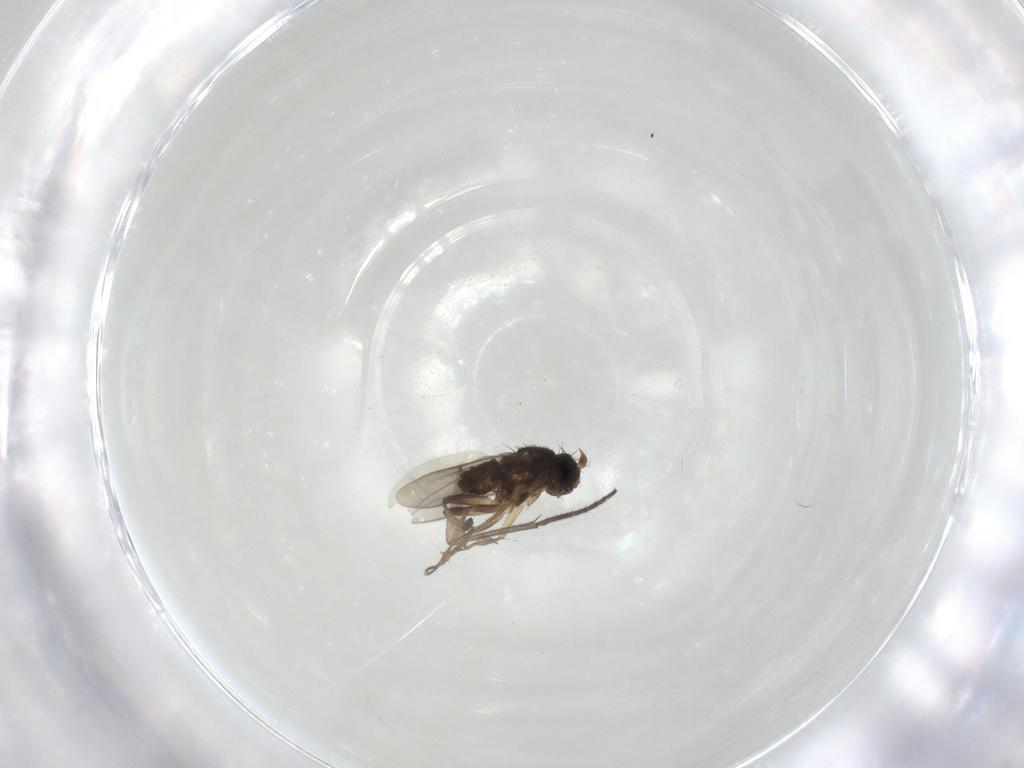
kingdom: Animalia
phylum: Arthropoda
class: Insecta
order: Diptera
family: Sphaeroceridae
